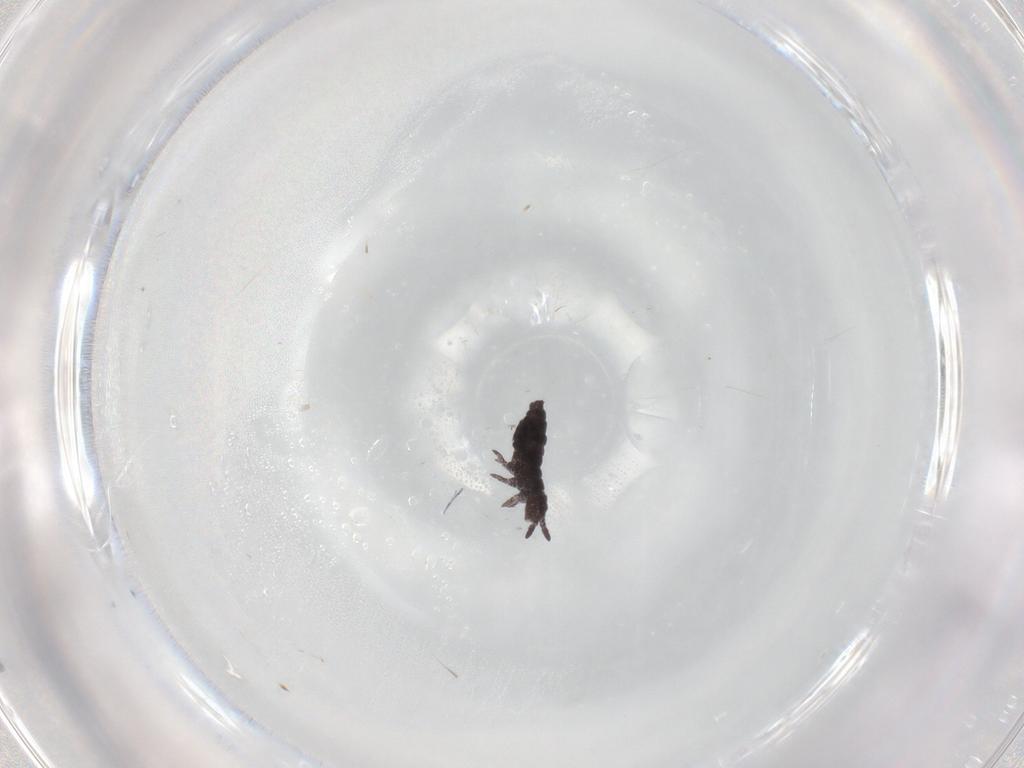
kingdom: Animalia
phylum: Arthropoda
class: Collembola
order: Poduromorpha
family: Hypogastruridae
